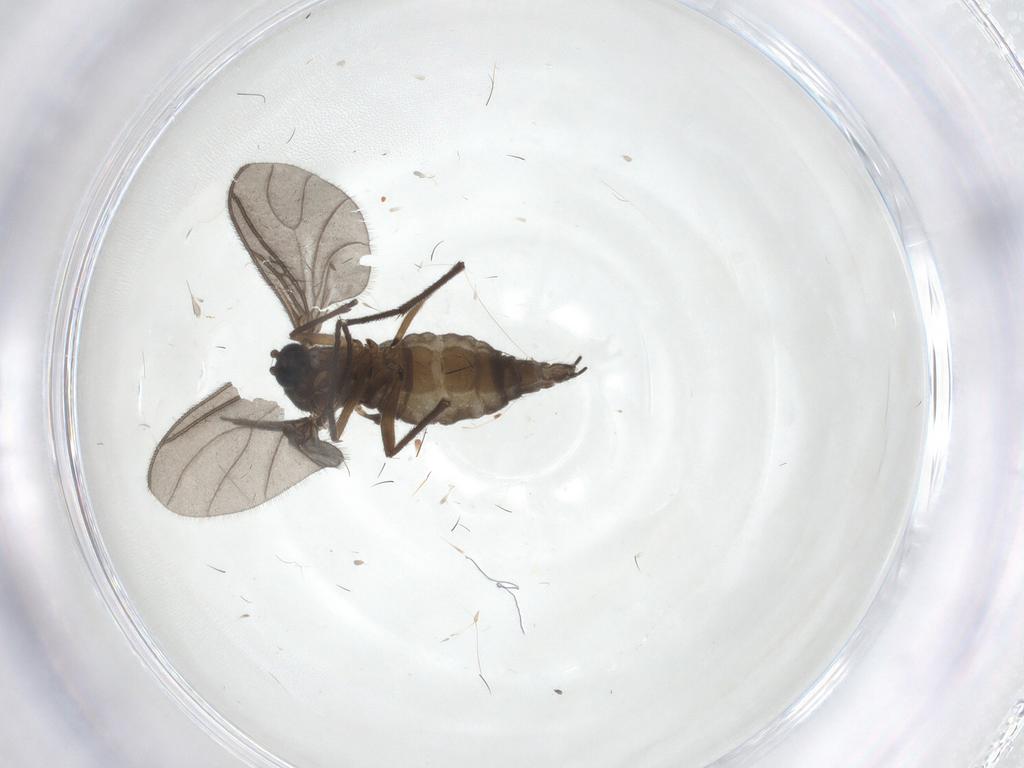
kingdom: Animalia
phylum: Arthropoda
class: Insecta
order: Diptera
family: Sciaridae
